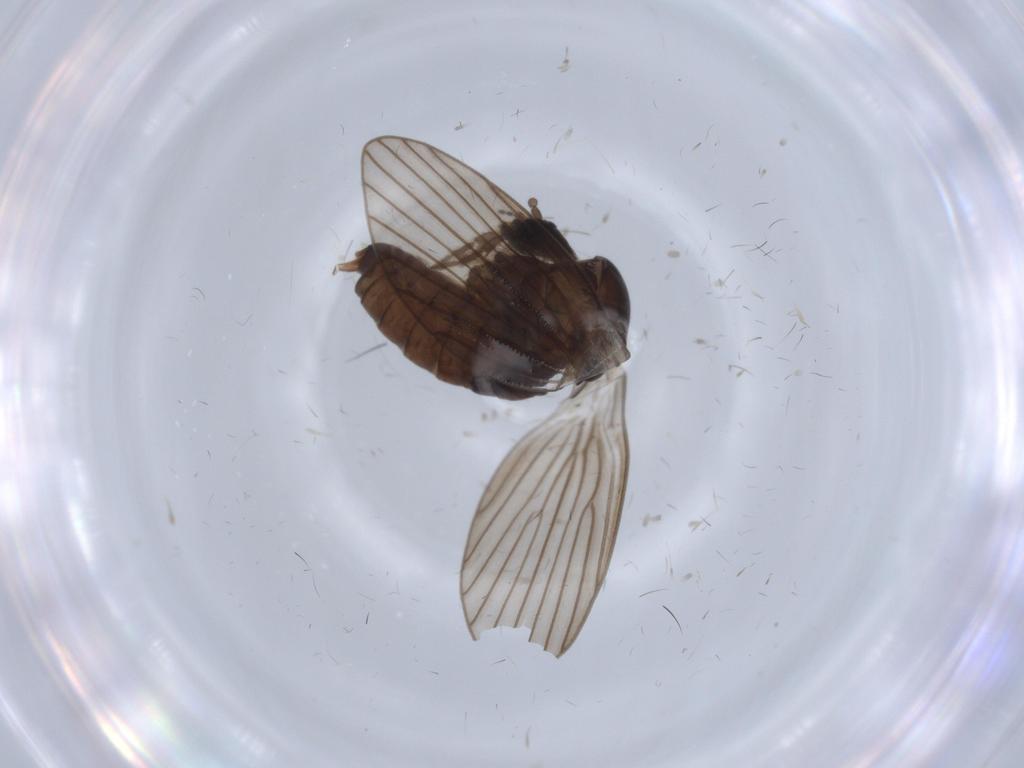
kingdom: Animalia
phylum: Arthropoda
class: Insecta
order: Diptera
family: Psychodidae
